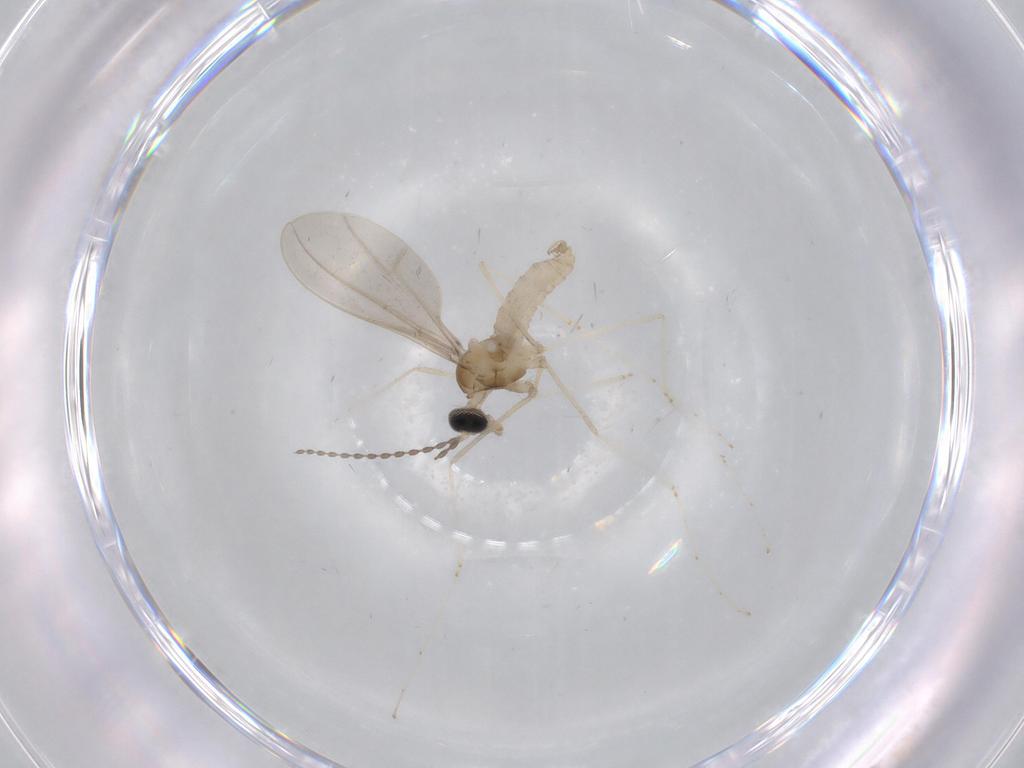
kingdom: Animalia
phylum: Arthropoda
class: Insecta
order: Diptera
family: Cecidomyiidae
